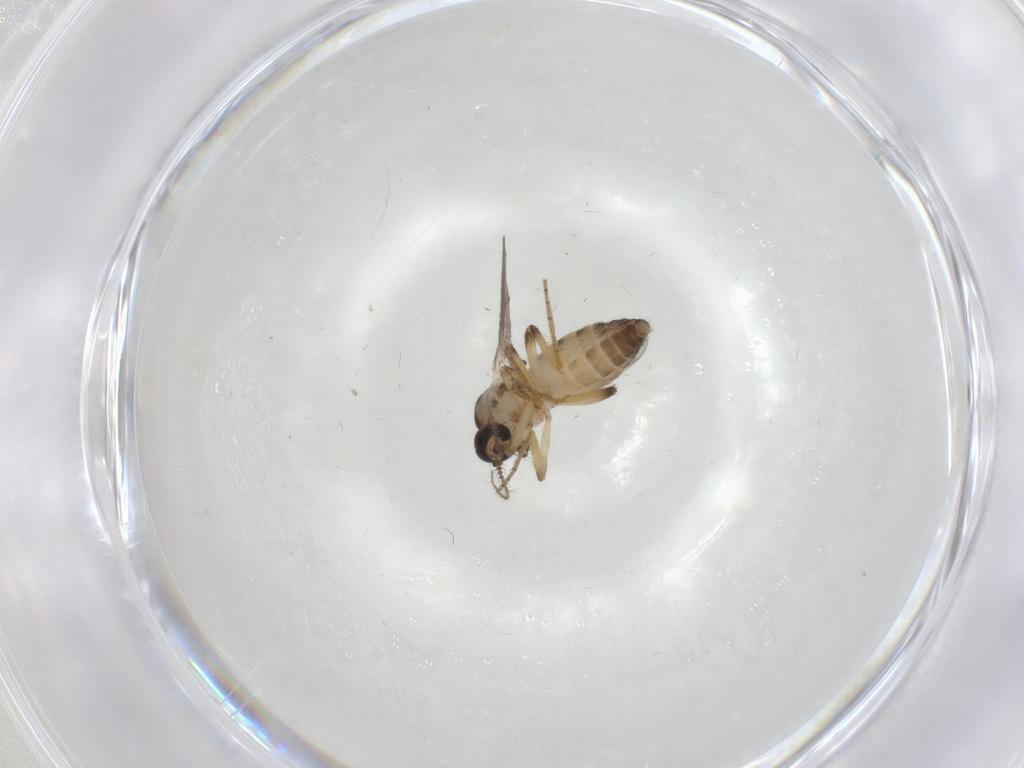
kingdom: Animalia
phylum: Arthropoda
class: Insecta
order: Diptera
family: Ceratopogonidae
